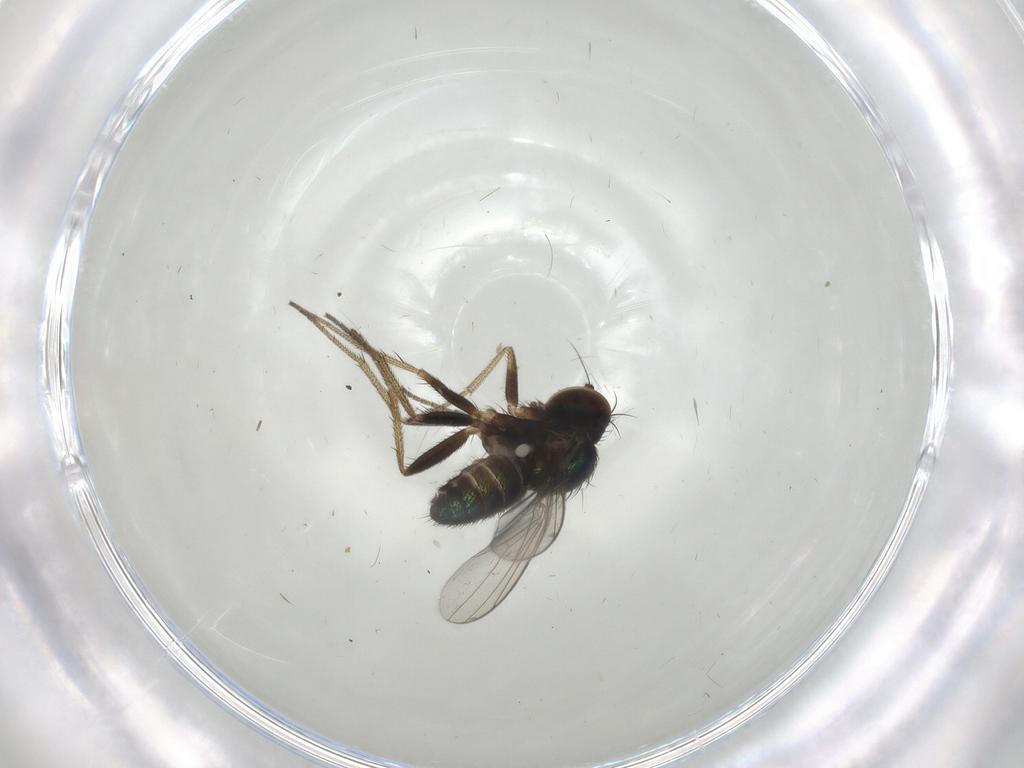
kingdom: Animalia
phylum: Arthropoda
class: Insecta
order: Diptera
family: Dolichopodidae
